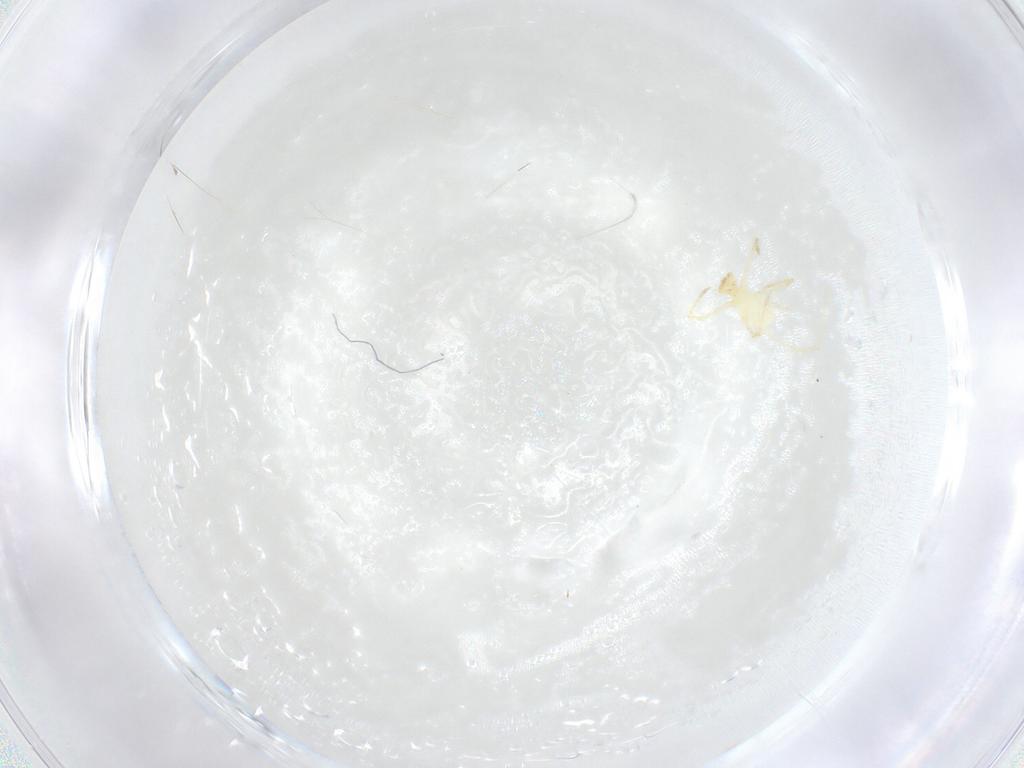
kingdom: Animalia
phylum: Arthropoda
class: Arachnida
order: Trombidiformes
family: Erythraeidae
